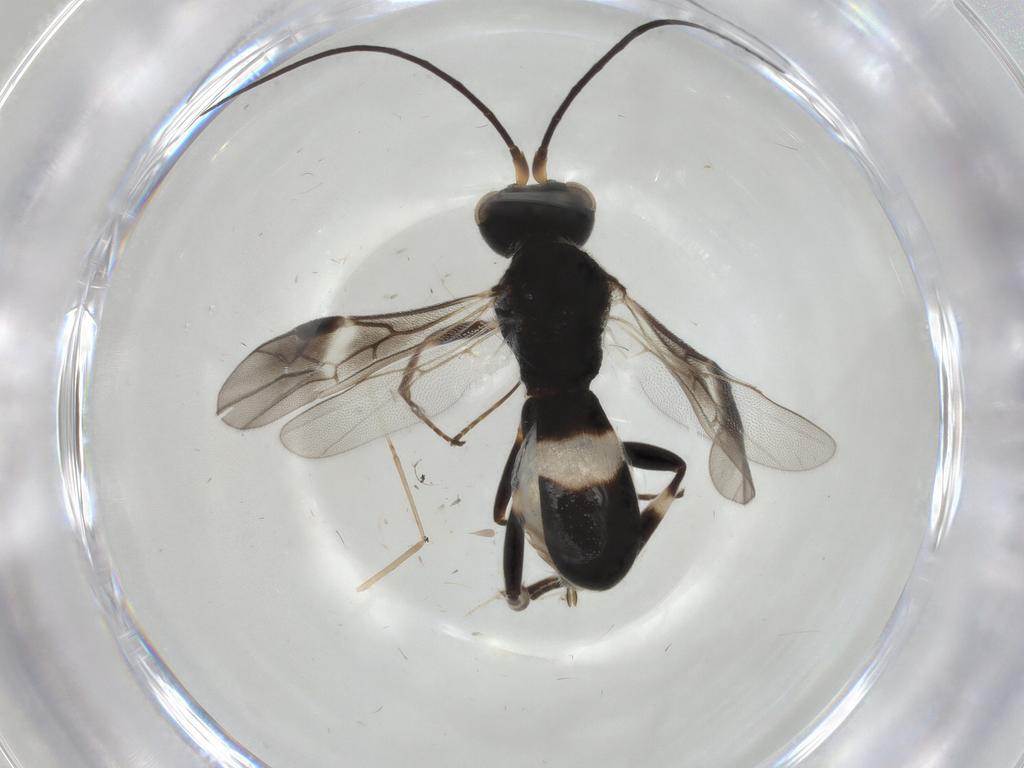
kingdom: Animalia
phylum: Arthropoda
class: Insecta
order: Hymenoptera
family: Braconidae
